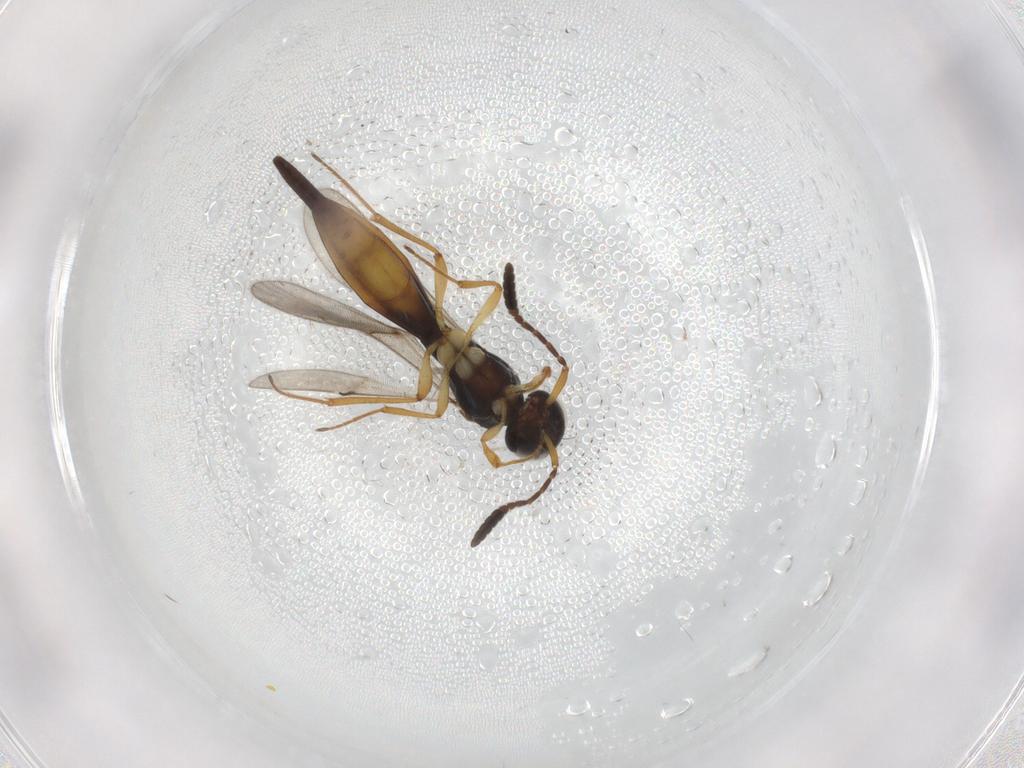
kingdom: Animalia
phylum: Arthropoda
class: Insecta
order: Hymenoptera
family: Scelionidae
